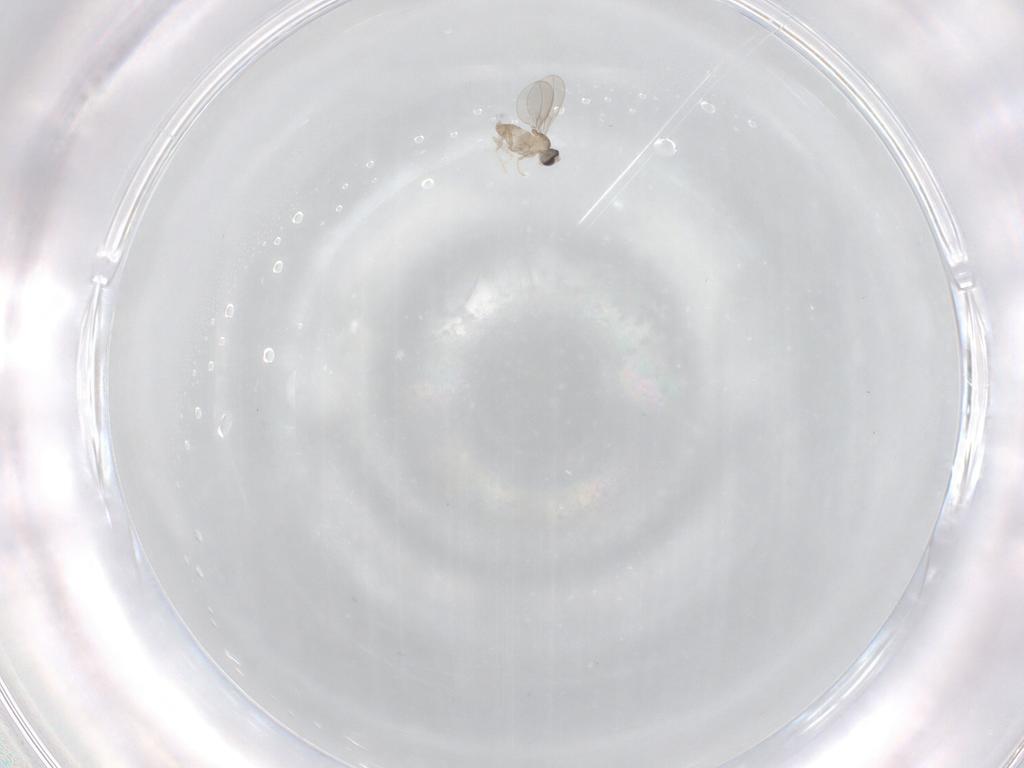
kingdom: Animalia
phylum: Arthropoda
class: Insecta
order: Diptera
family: Cecidomyiidae
